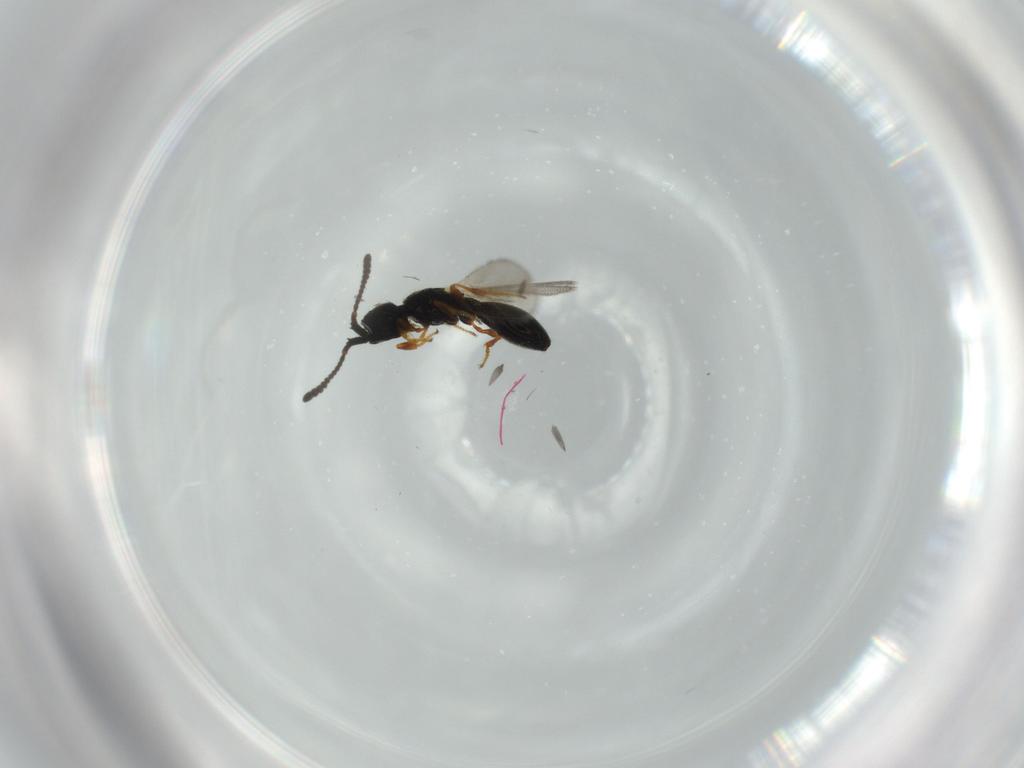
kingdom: Animalia
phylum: Arthropoda
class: Insecta
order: Hymenoptera
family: Diapriidae
